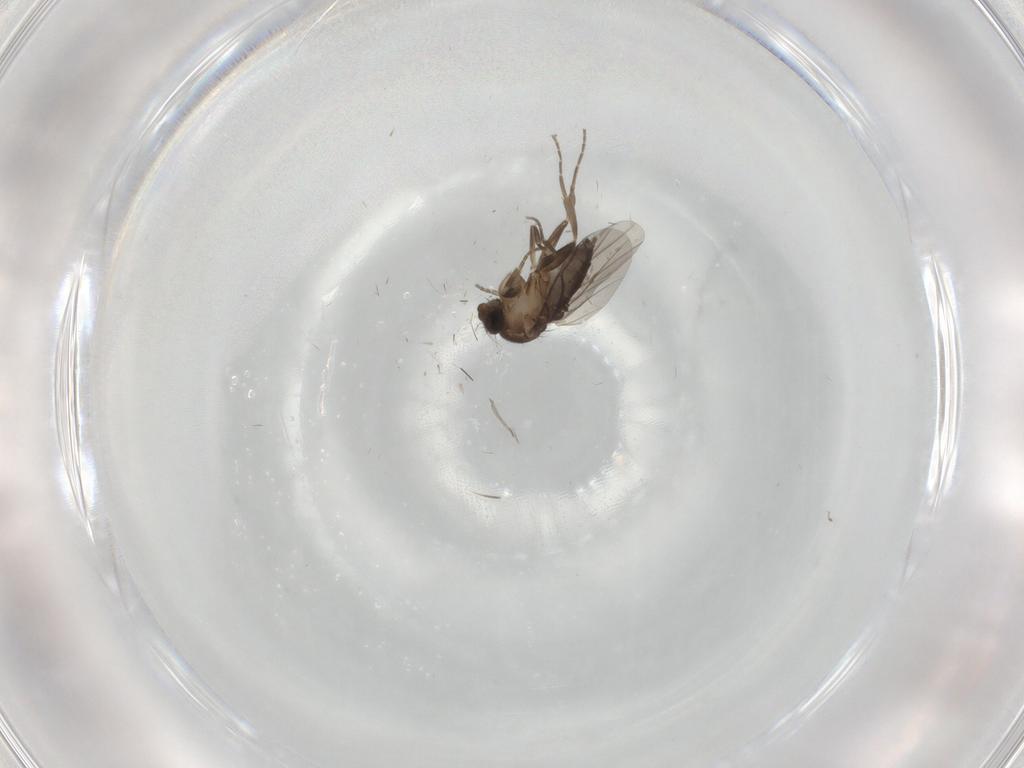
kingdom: Animalia
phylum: Arthropoda
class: Insecta
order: Diptera
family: Phoridae
